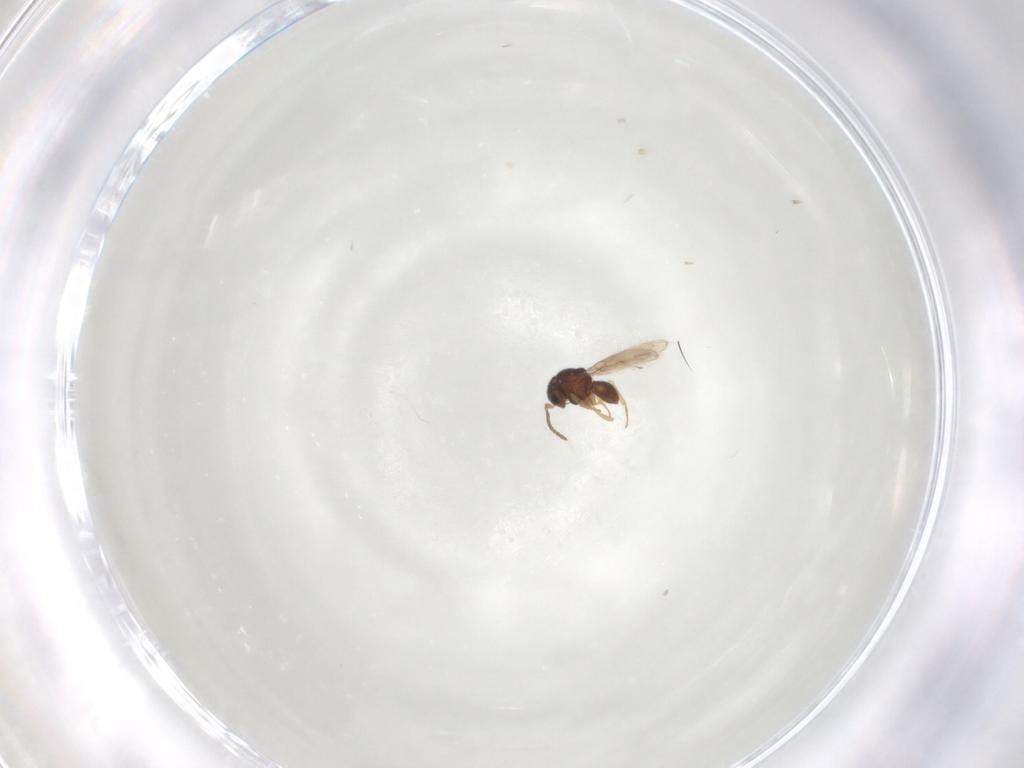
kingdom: Animalia
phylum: Arthropoda
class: Insecta
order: Hymenoptera
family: Scelionidae
